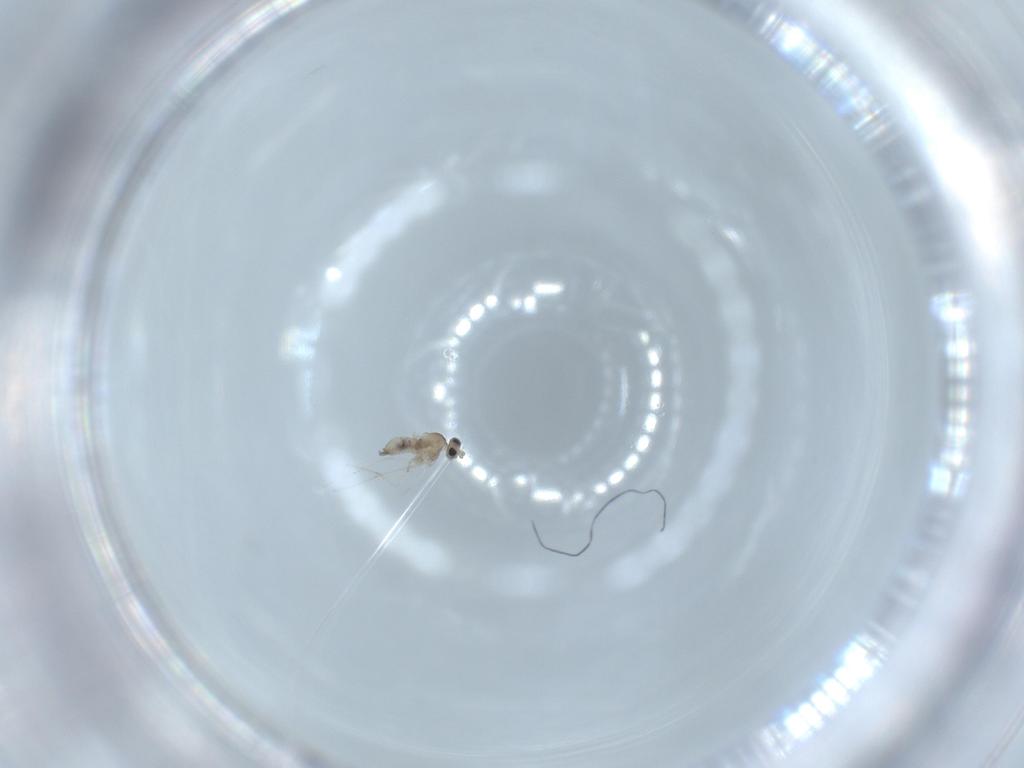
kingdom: Animalia
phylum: Arthropoda
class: Insecta
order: Diptera
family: Cecidomyiidae
